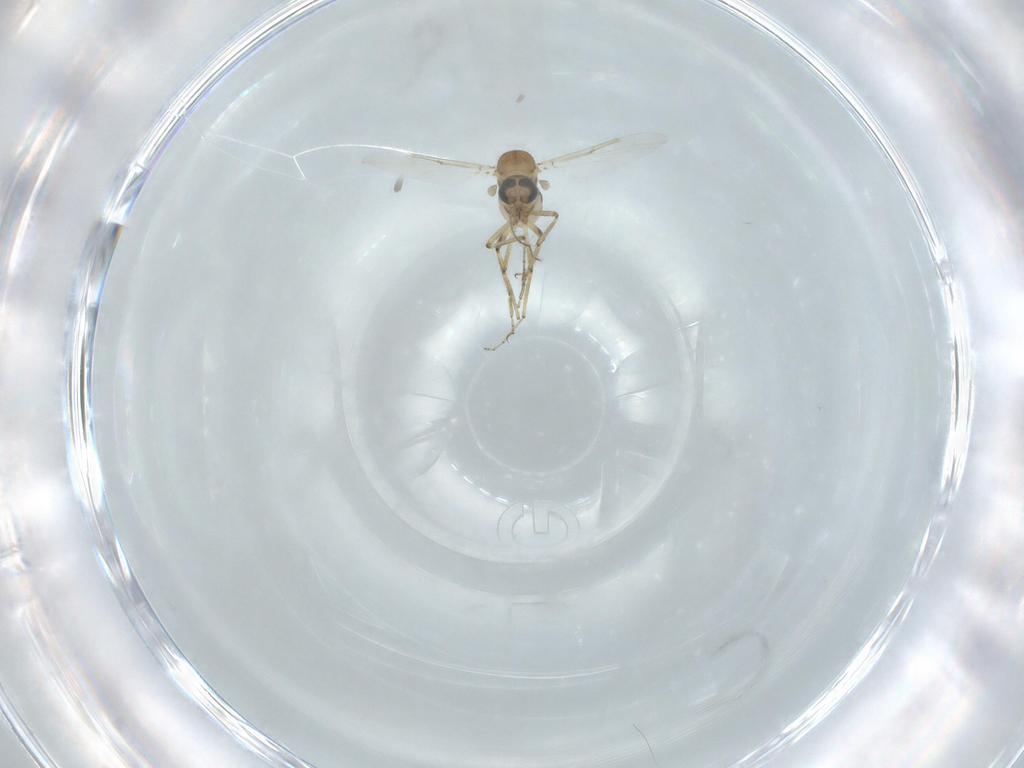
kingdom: Animalia
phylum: Arthropoda
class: Insecta
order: Diptera
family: Ceratopogonidae
